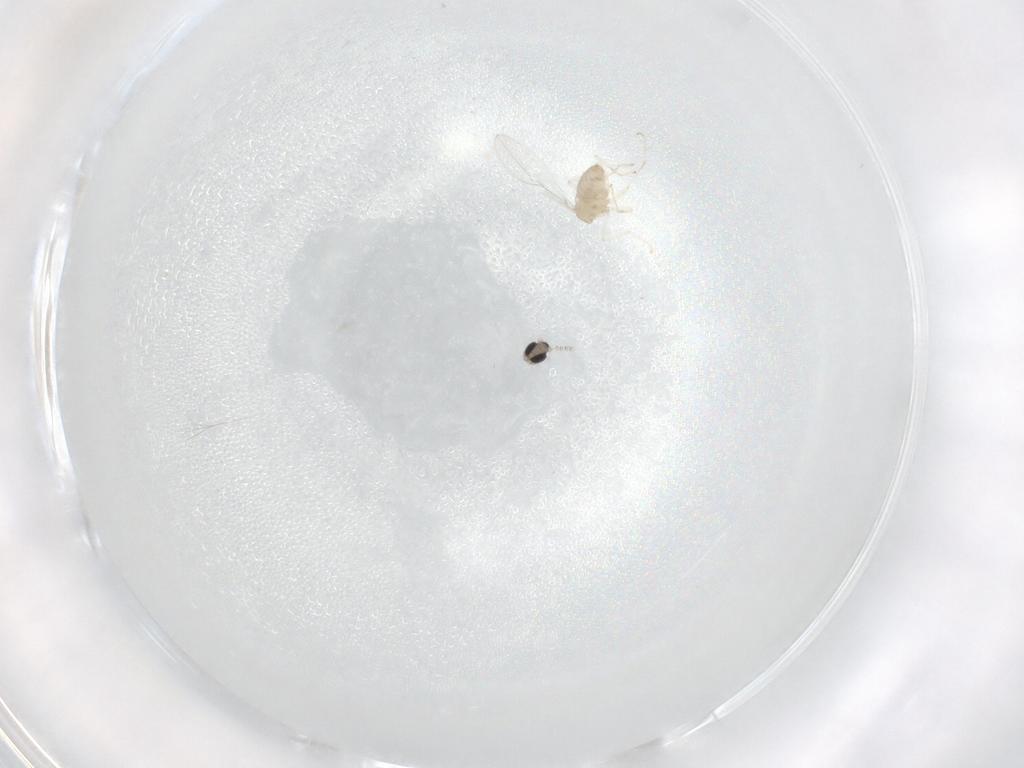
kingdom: Animalia
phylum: Arthropoda
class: Insecta
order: Diptera
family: Cecidomyiidae
